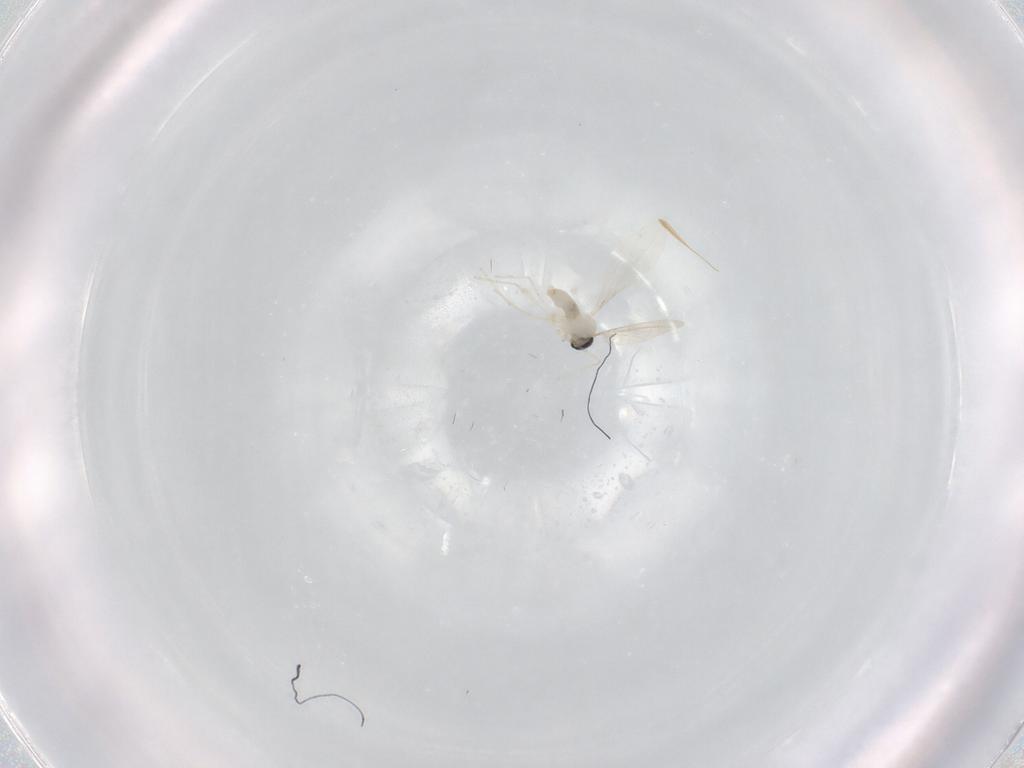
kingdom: Animalia
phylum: Arthropoda
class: Insecta
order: Diptera
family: Cecidomyiidae
